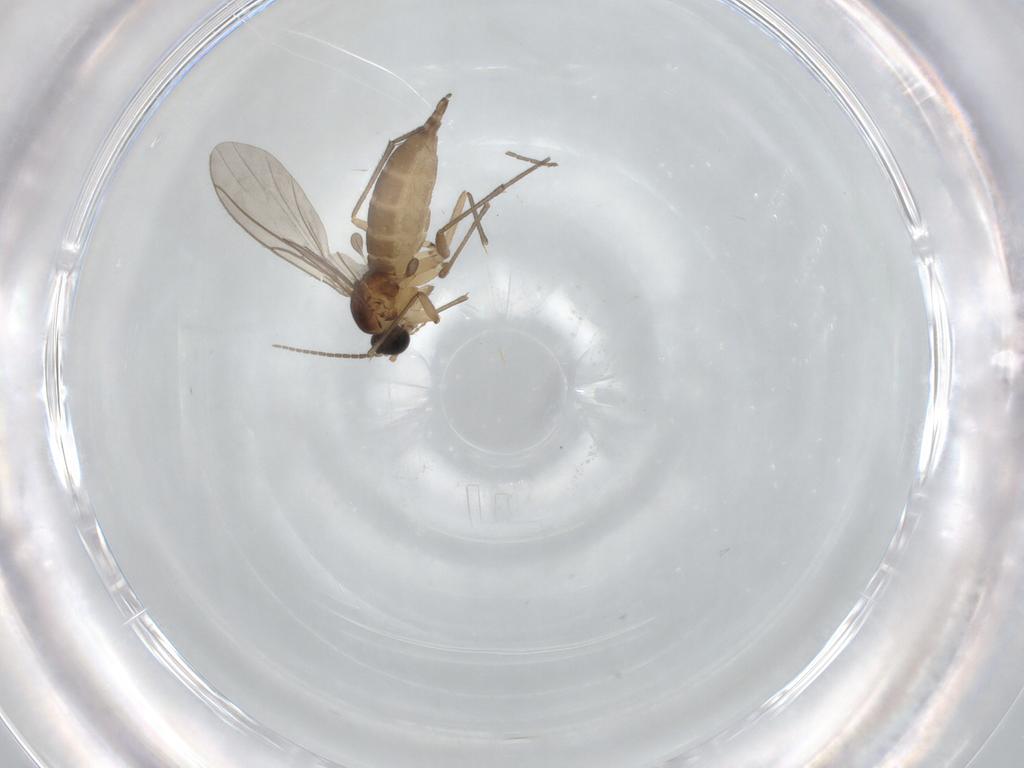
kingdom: Animalia
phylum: Arthropoda
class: Insecta
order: Diptera
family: Sciaridae
